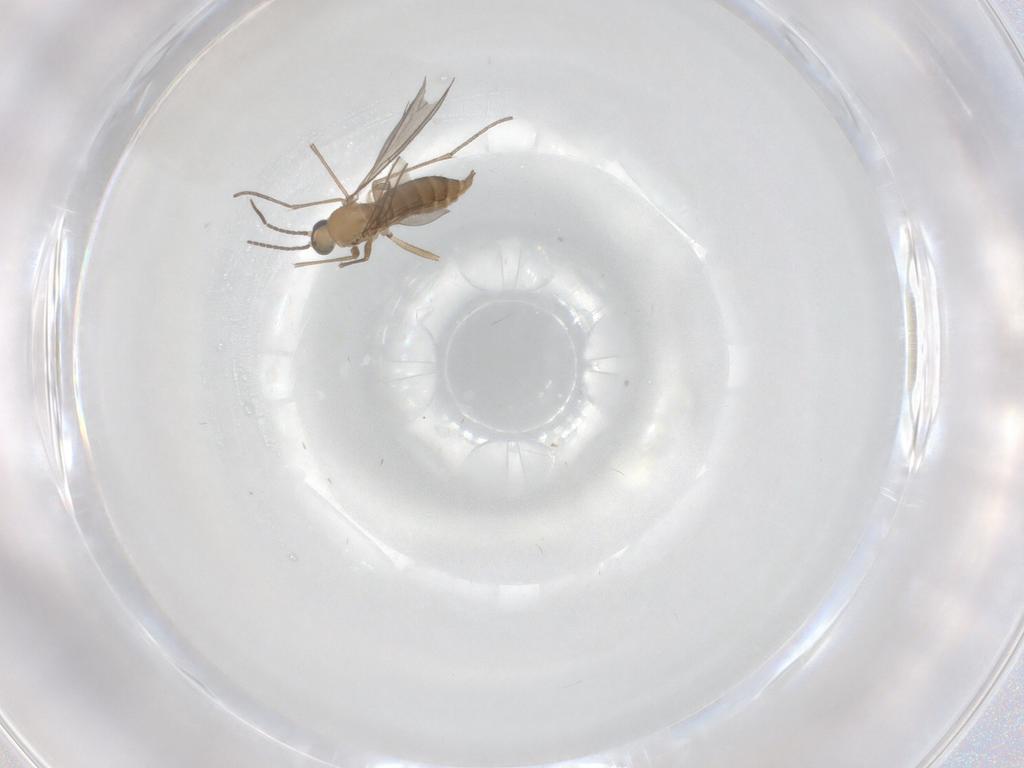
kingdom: Animalia
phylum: Arthropoda
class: Insecta
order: Diptera
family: Sciaridae
